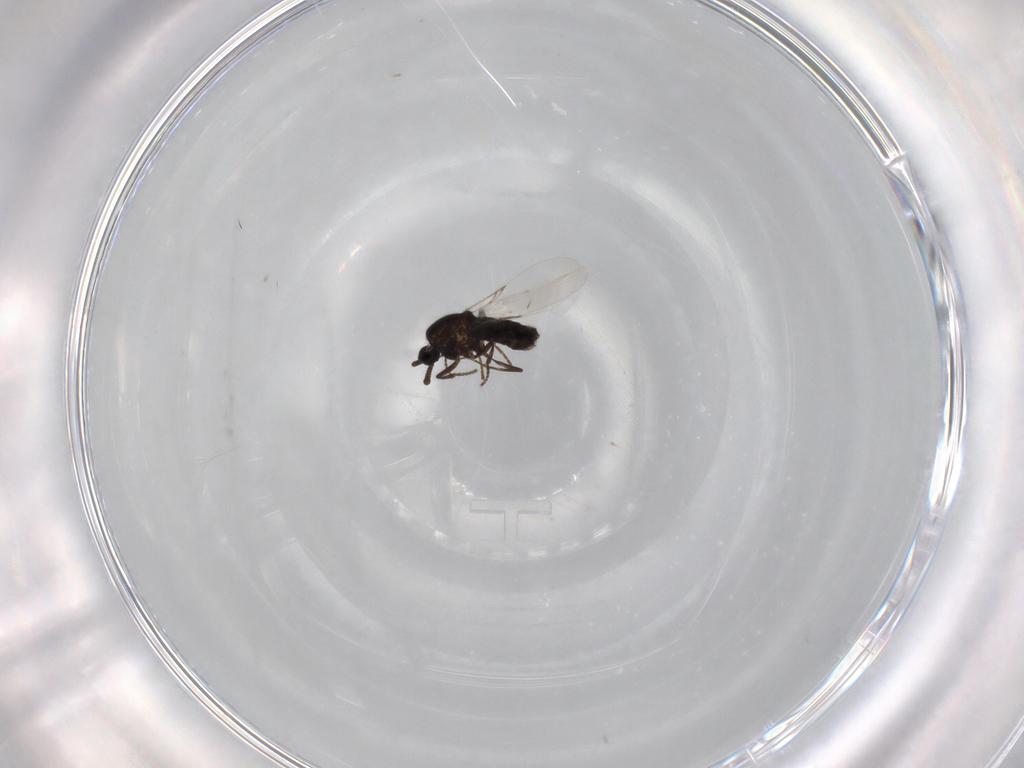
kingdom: Animalia
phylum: Arthropoda
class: Insecta
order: Diptera
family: Scatopsidae
